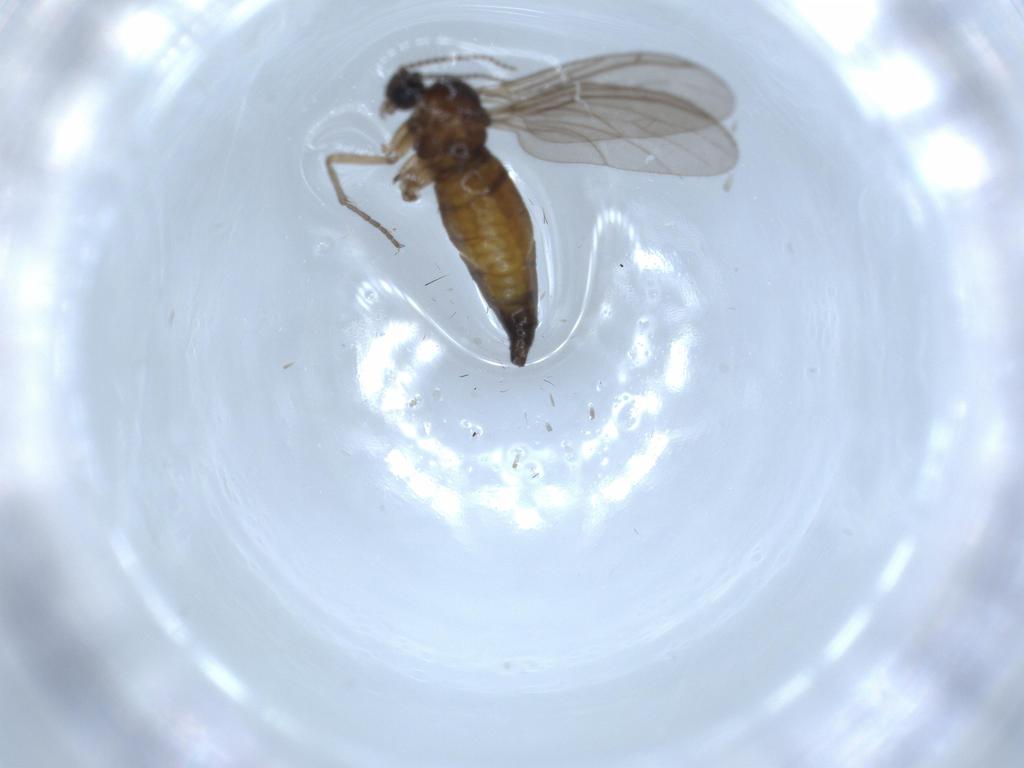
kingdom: Animalia
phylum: Arthropoda
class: Insecta
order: Diptera
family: Sciaridae
